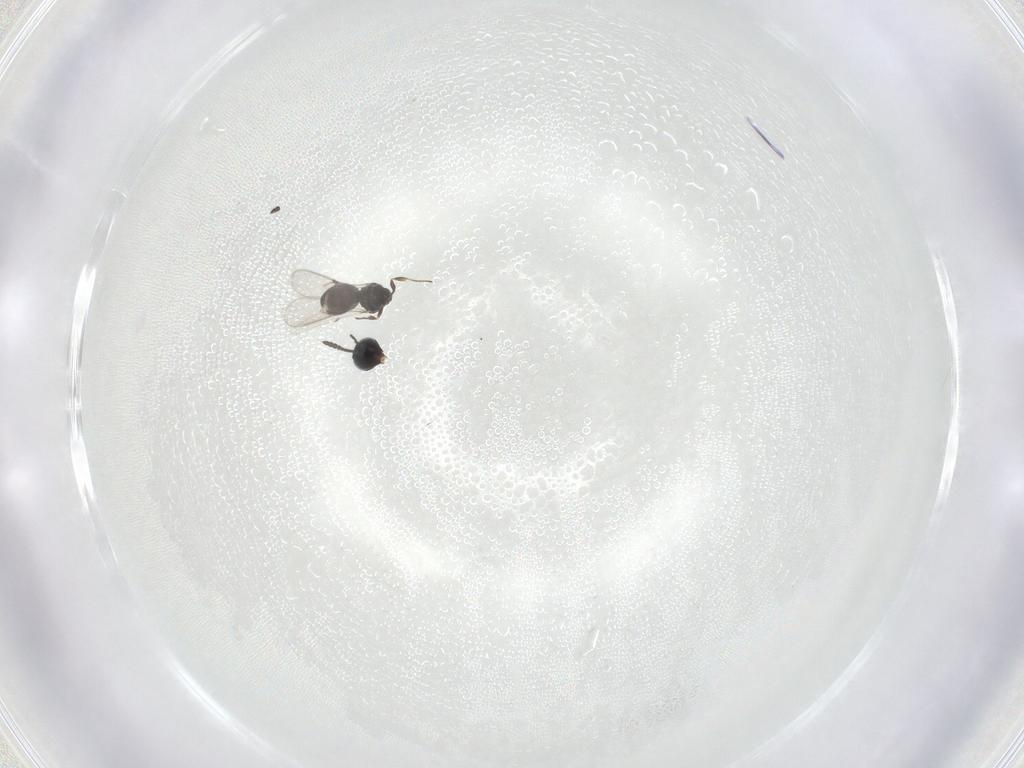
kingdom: Animalia
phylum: Arthropoda
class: Insecta
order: Hymenoptera
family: Scelionidae
